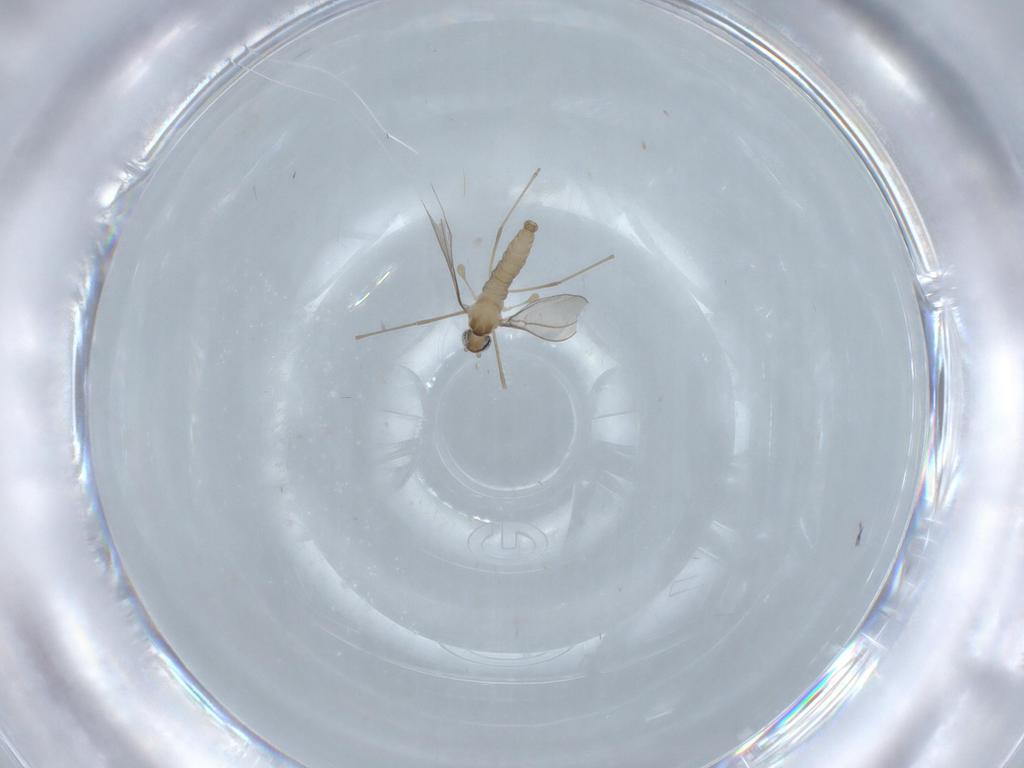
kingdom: Animalia
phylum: Arthropoda
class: Insecta
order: Diptera
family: Cecidomyiidae
